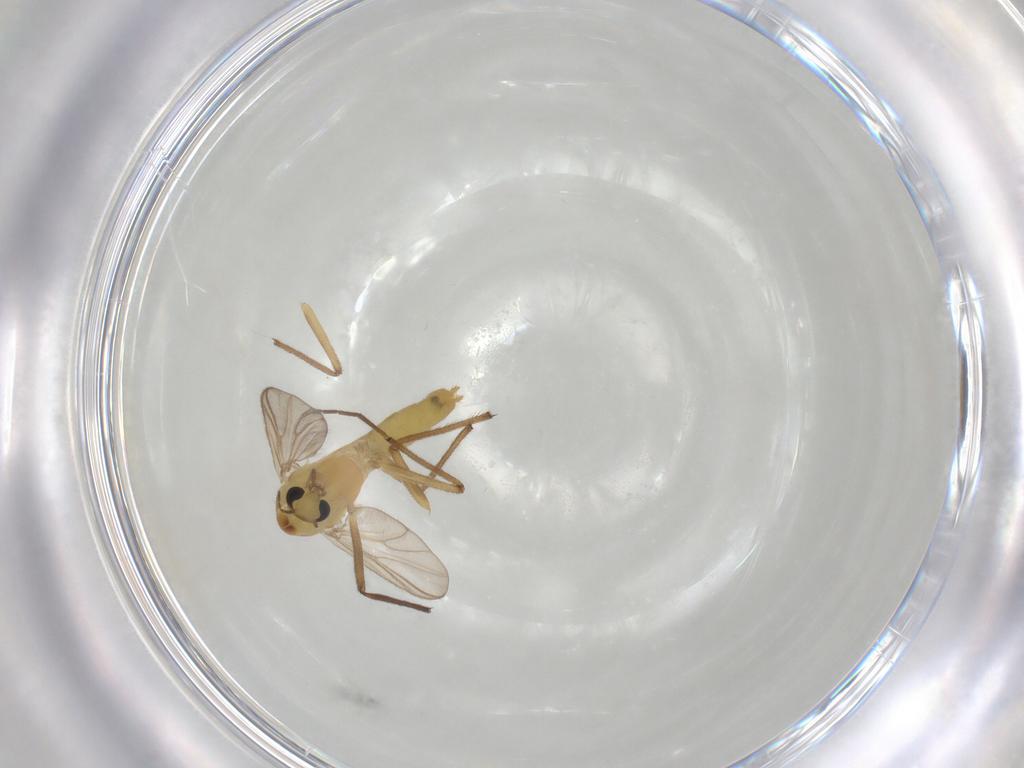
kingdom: Animalia
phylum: Arthropoda
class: Insecta
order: Diptera
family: Chironomidae
